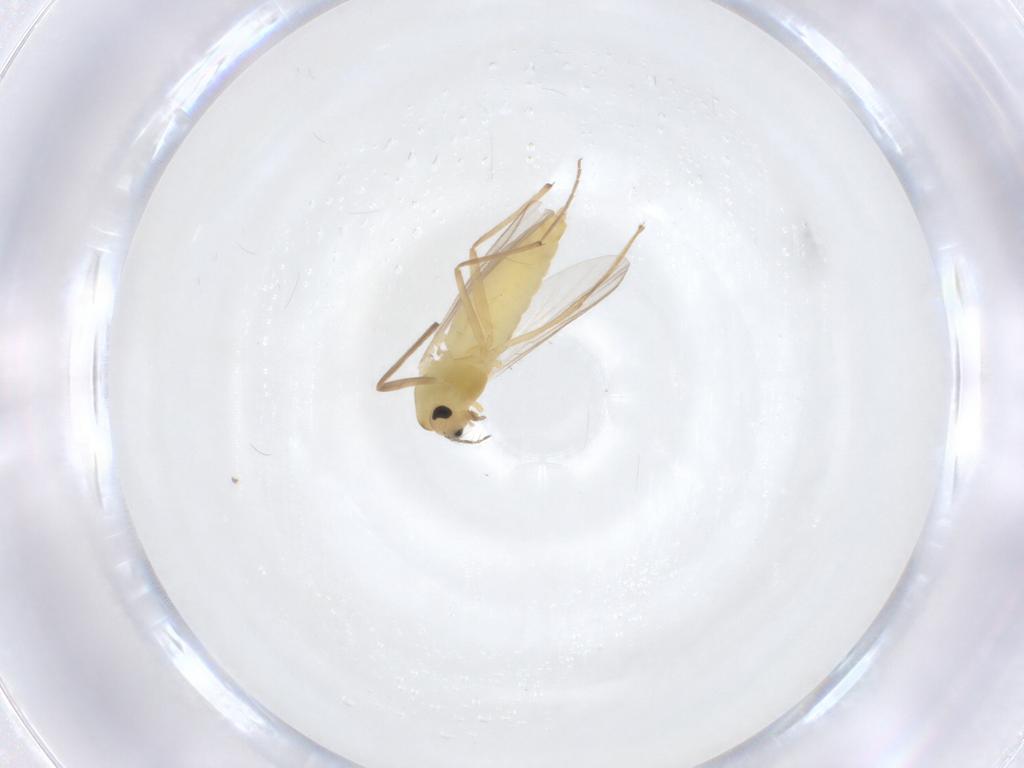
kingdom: Animalia
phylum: Arthropoda
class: Insecta
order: Diptera
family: Chironomidae
